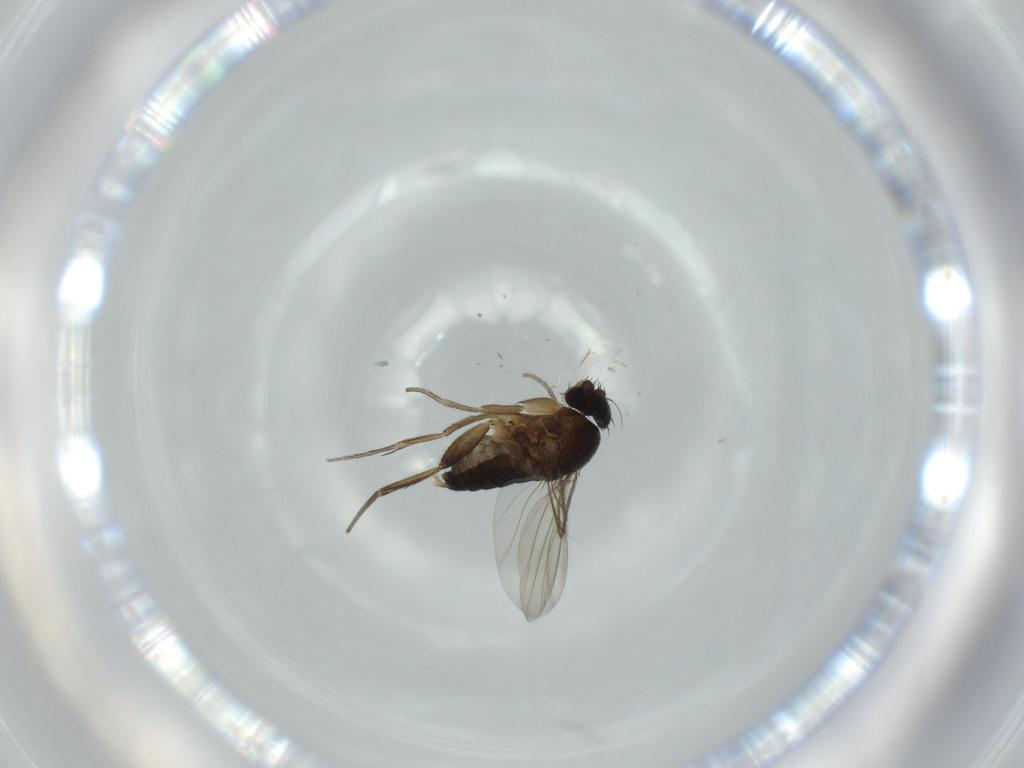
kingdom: Animalia
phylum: Arthropoda
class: Insecta
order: Diptera
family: Phoridae
